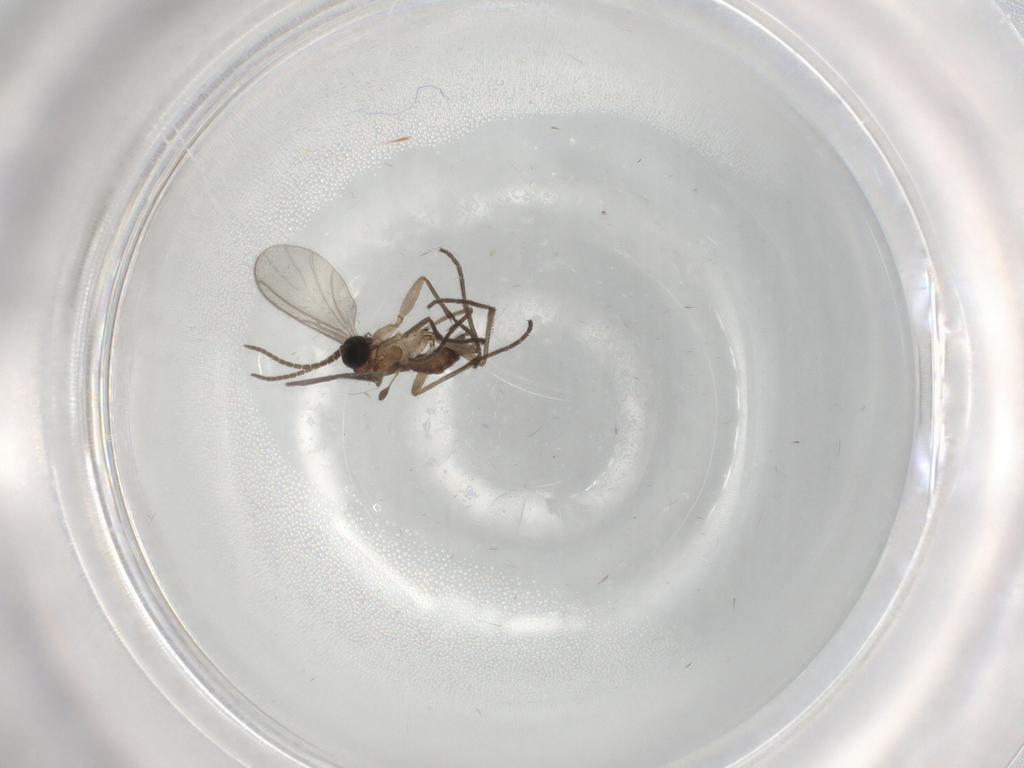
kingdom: Animalia
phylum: Arthropoda
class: Insecta
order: Diptera
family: Sciaridae
